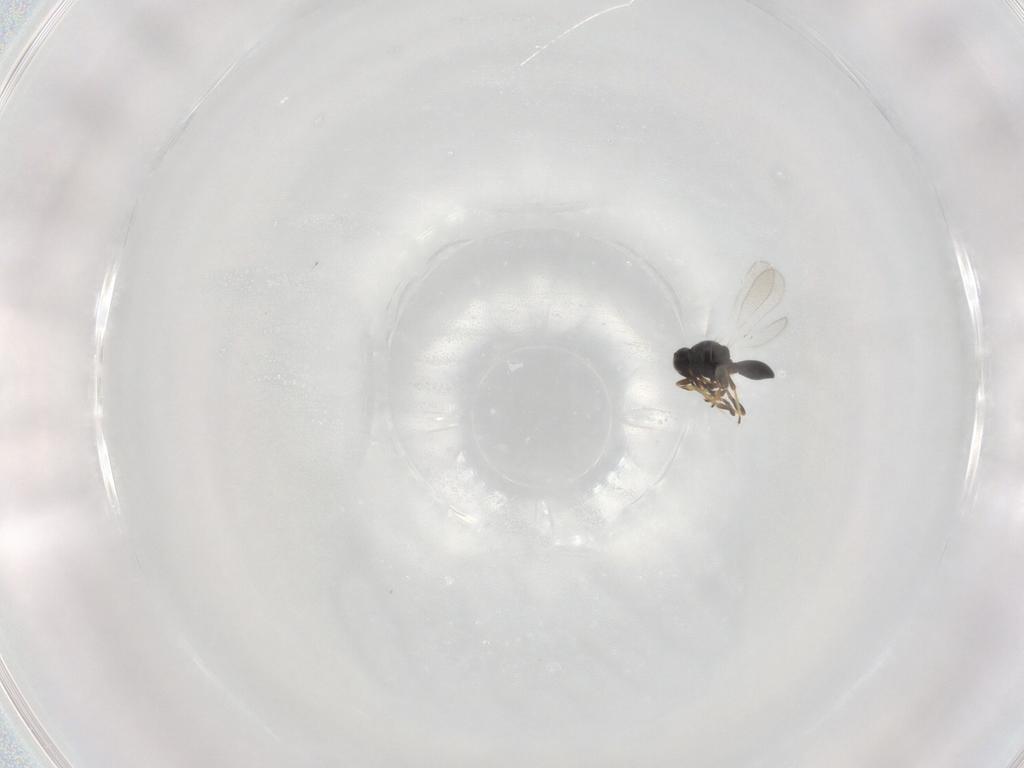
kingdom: Animalia
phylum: Arthropoda
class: Insecta
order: Hymenoptera
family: Platygastridae
